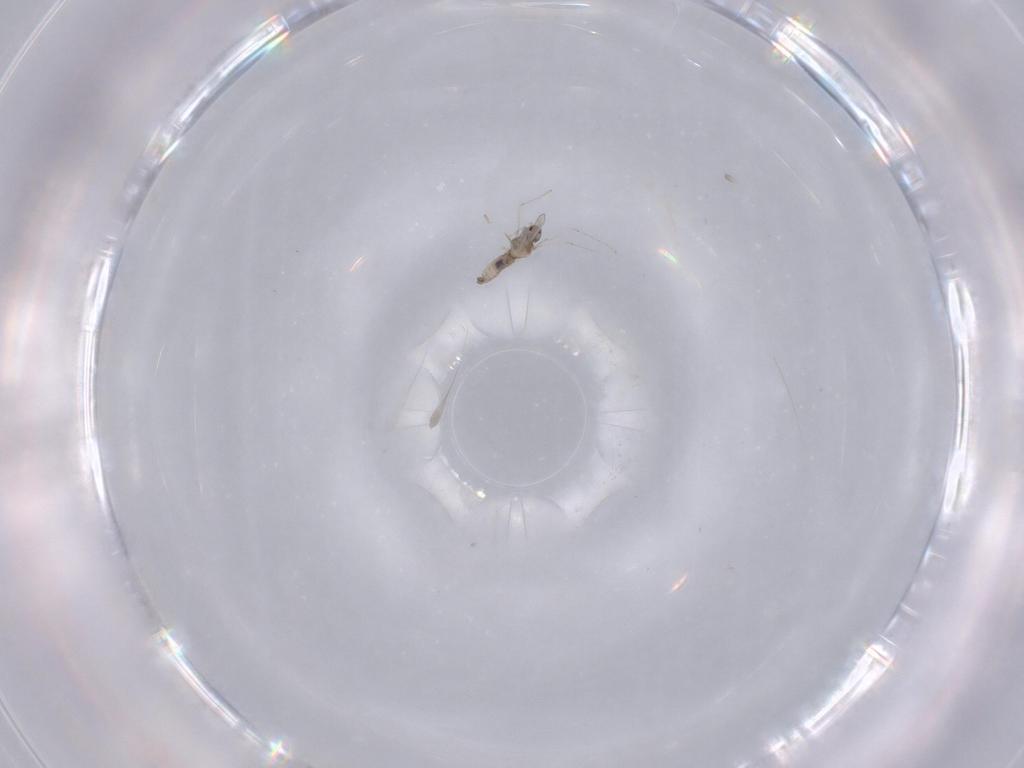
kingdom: Animalia
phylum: Arthropoda
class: Insecta
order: Diptera
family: Cecidomyiidae
